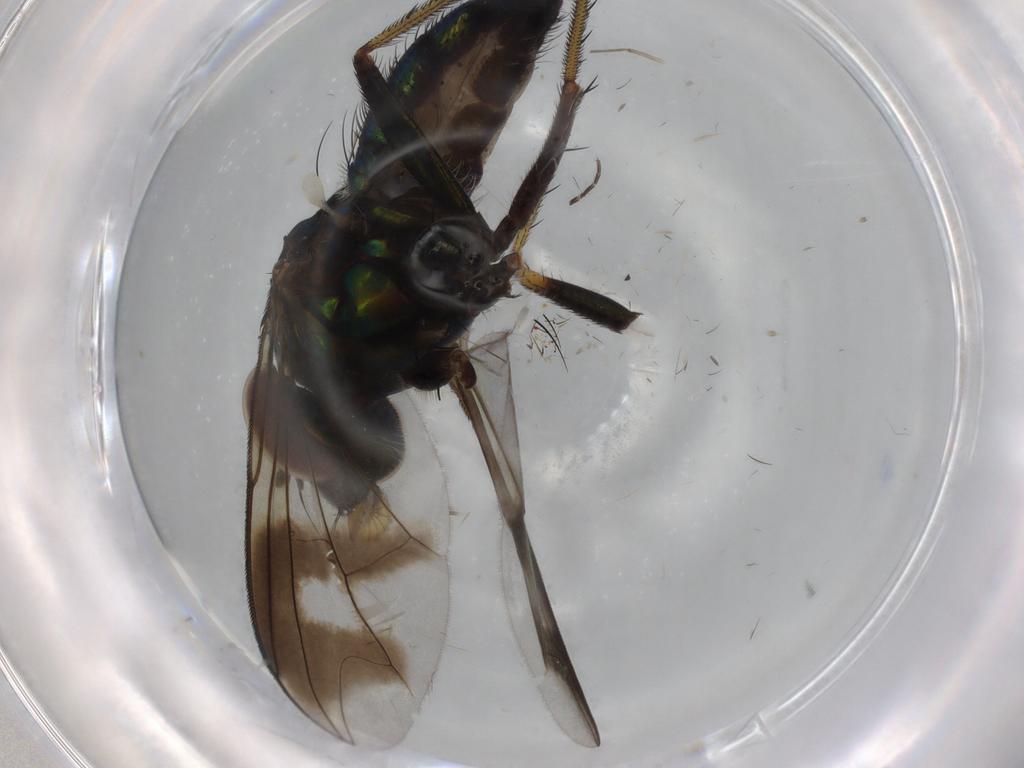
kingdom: Animalia
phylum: Arthropoda
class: Insecta
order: Diptera
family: Dolichopodidae
